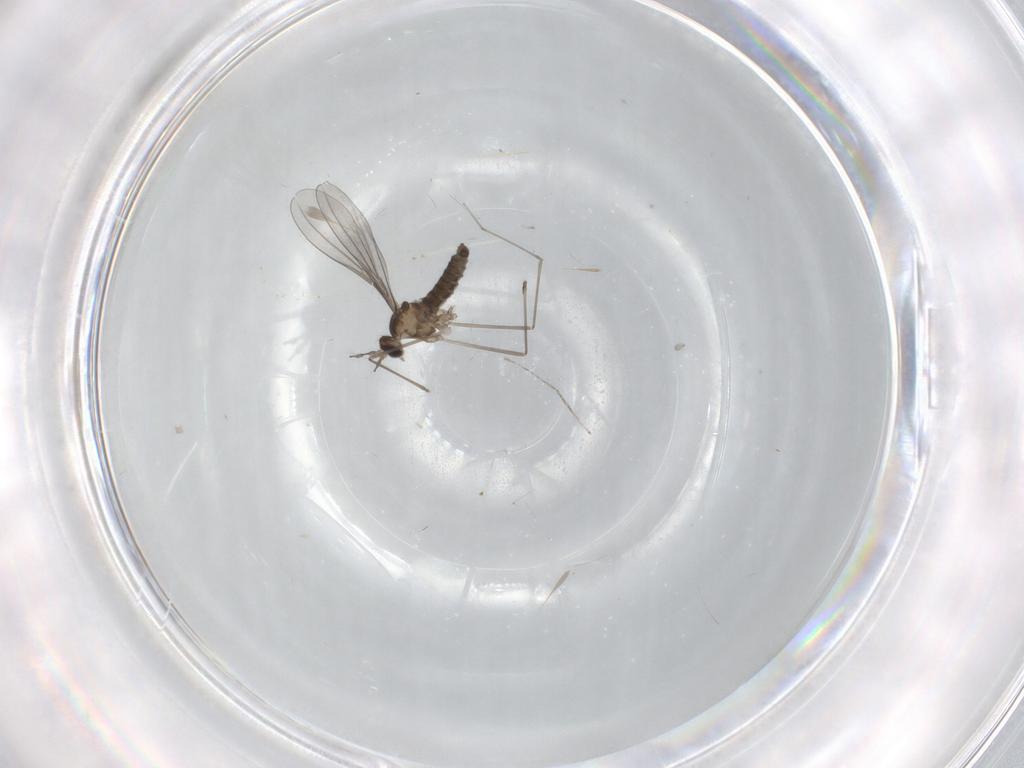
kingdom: Animalia
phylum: Arthropoda
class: Insecta
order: Diptera
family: Cecidomyiidae
